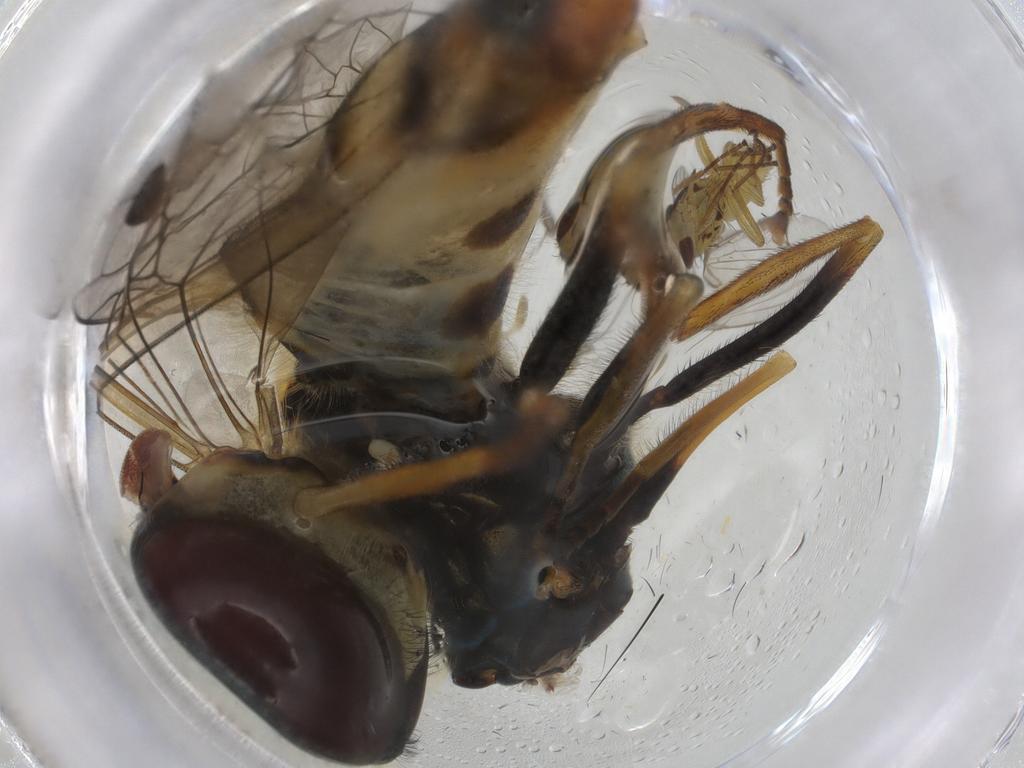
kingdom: Animalia
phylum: Arthropoda
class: Insecta
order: Diptera
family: Syrphidae
